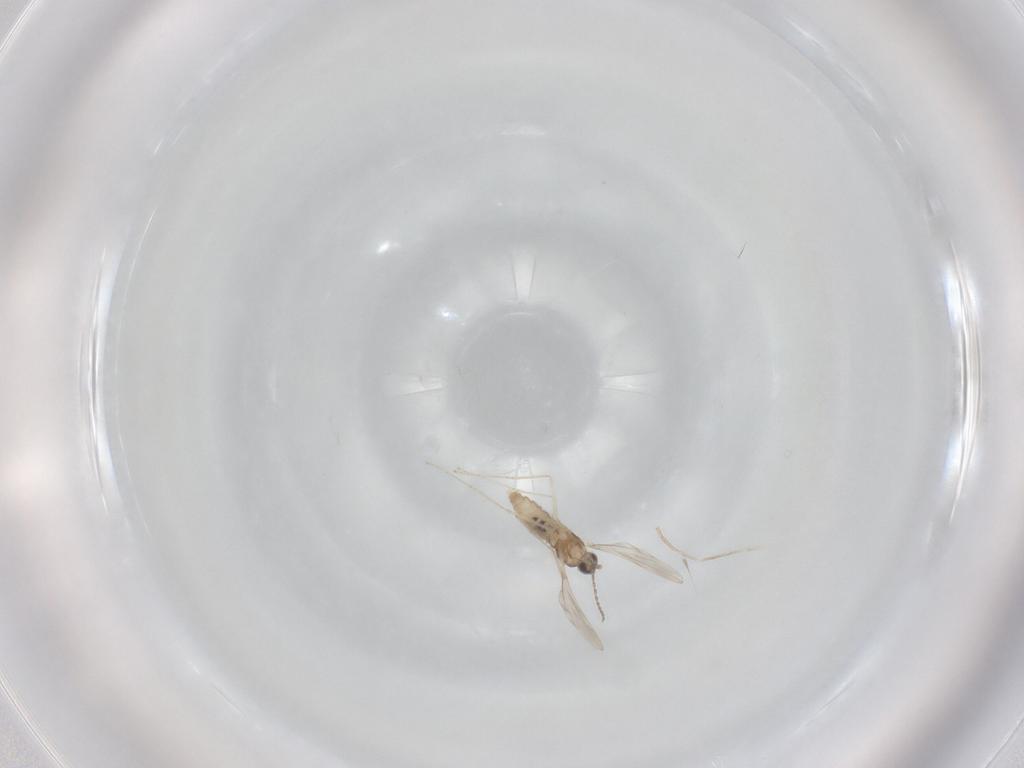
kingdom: Animalia
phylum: Arthropoda
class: Insecta
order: Diptera
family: Cecidomyiidae
